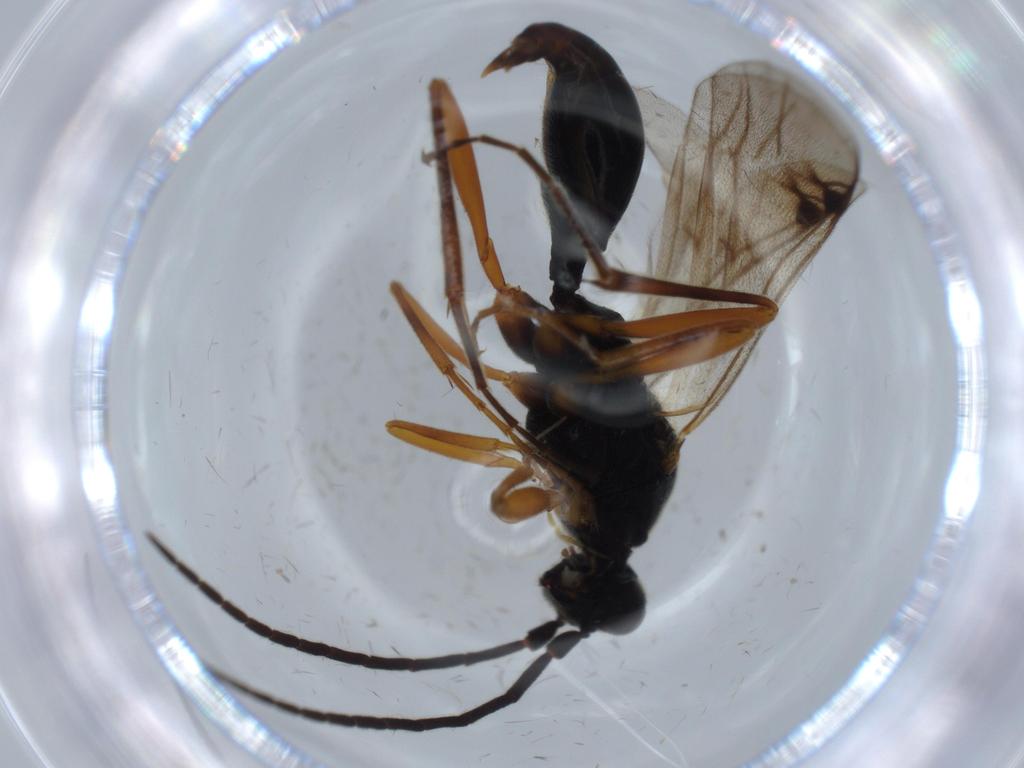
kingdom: Animalia
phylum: Arthropoda
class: Insecta
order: Hymenoptera
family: Proctotrupidae
